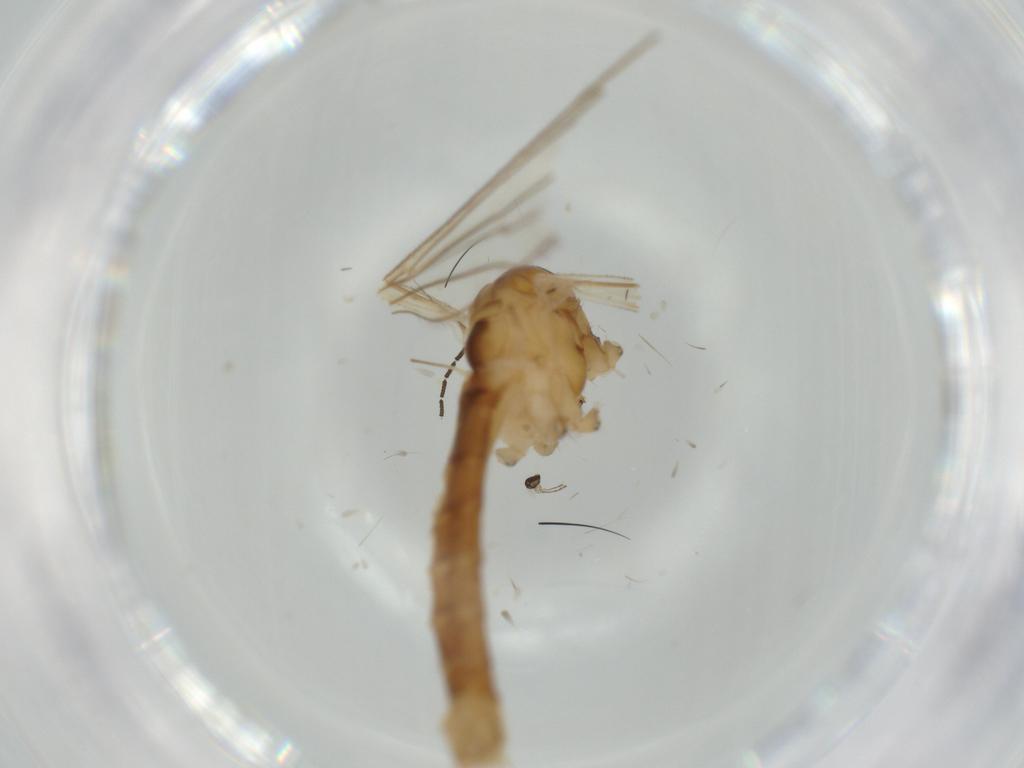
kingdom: Animalia
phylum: Arthropoda
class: Insecta
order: Diptera
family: Limoniidae
